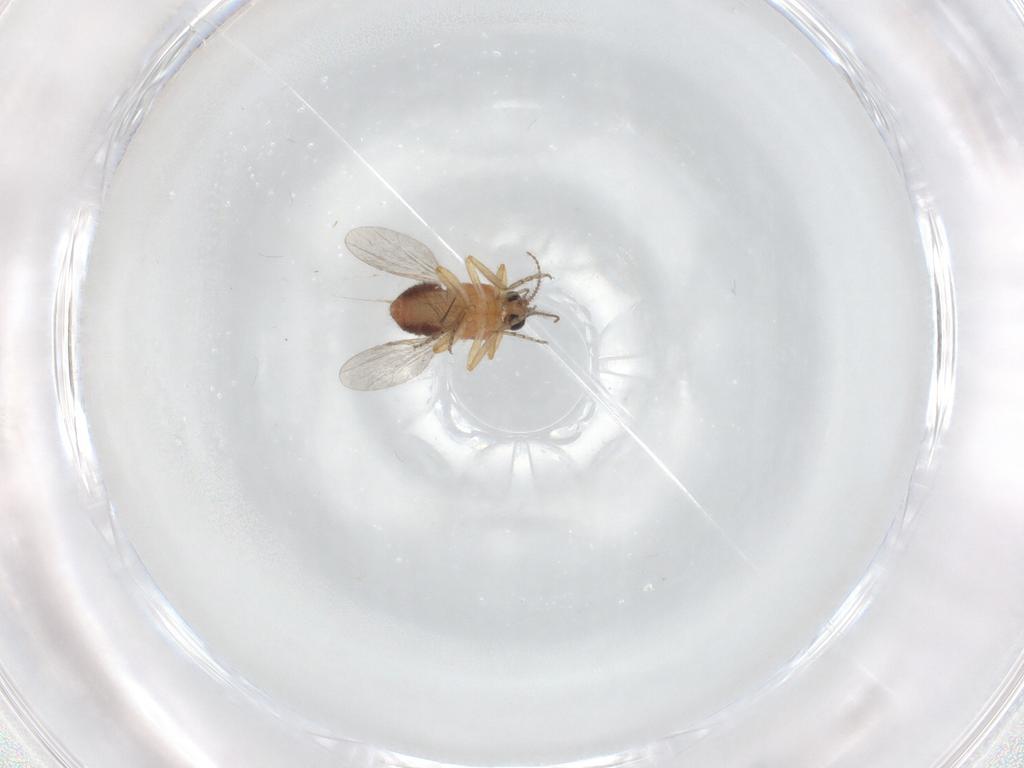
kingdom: Animalia
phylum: Arthropoda
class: Insecta
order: Diptera
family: Ceratopogonidae
